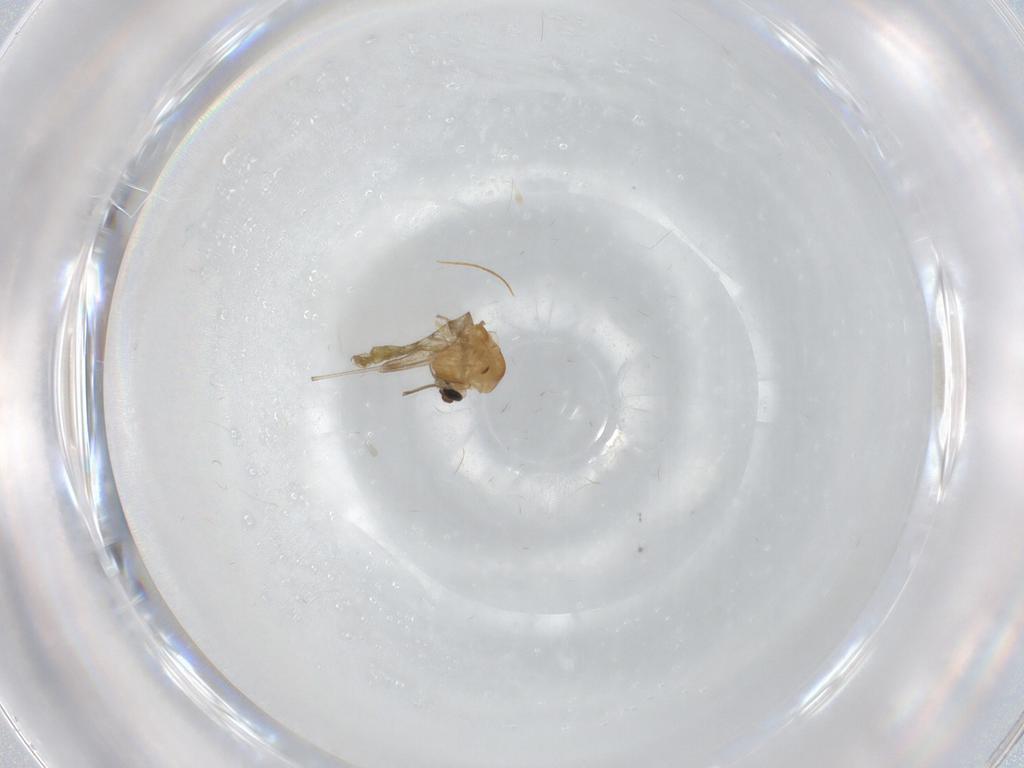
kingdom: Animalia
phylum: Arthropoda
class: Insecta
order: Diptera
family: Chironomidae
